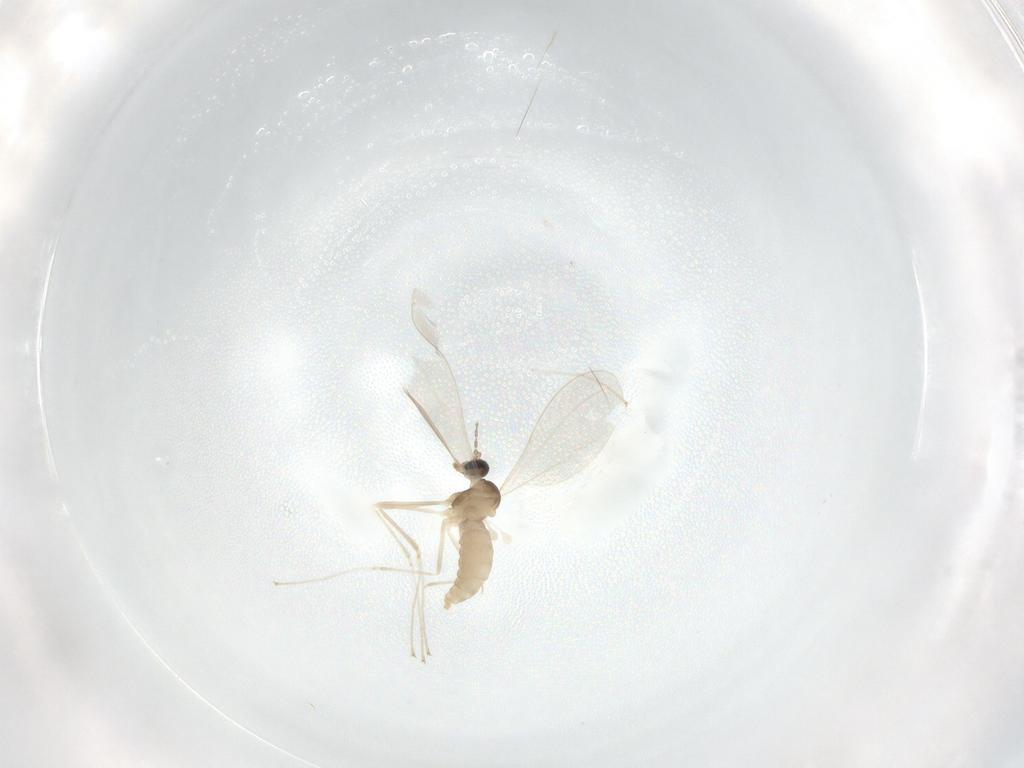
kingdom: Animalia
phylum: Arthropoda
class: Insecta
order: Diptera
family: Cecidomyiidae
